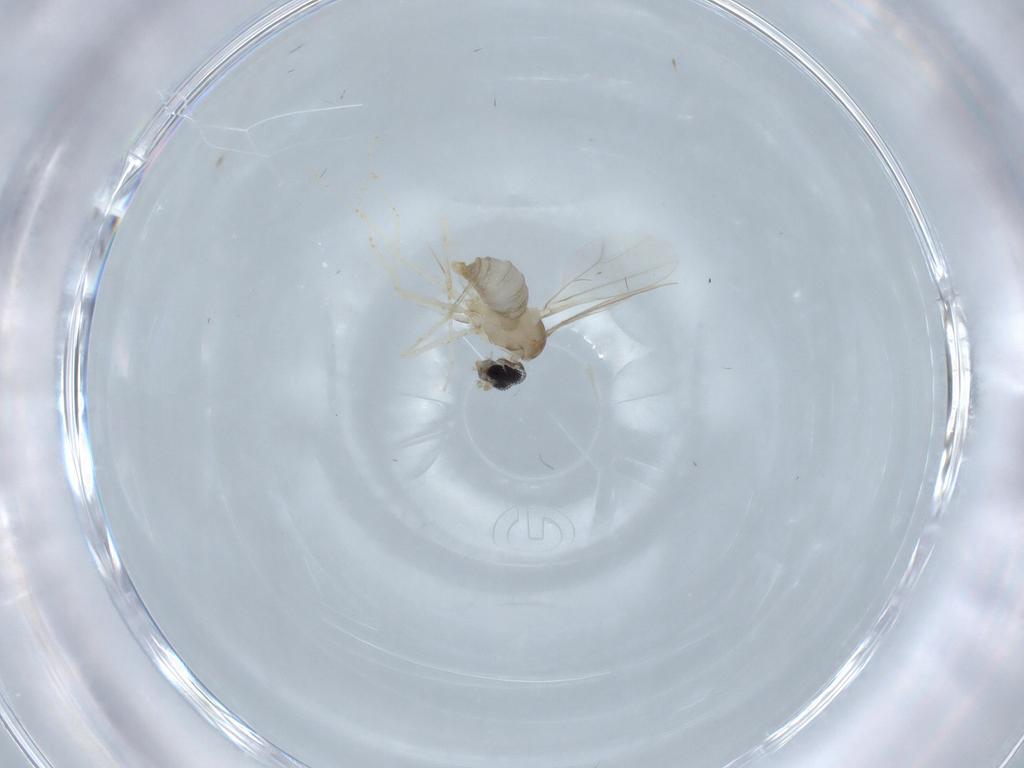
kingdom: Animalia
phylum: Arthropoda
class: Insecta
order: Diptera
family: Cecidomyiidae
